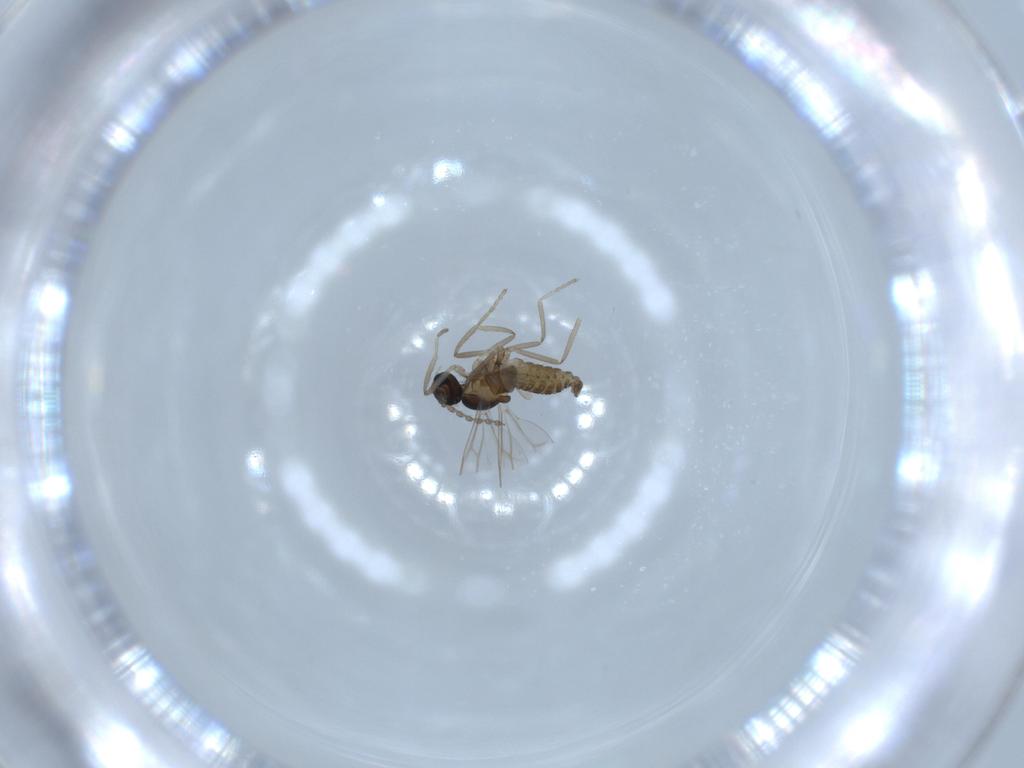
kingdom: Animalia
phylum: Arthropoda
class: Insecta
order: Diptera
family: Cecidomyiidae
